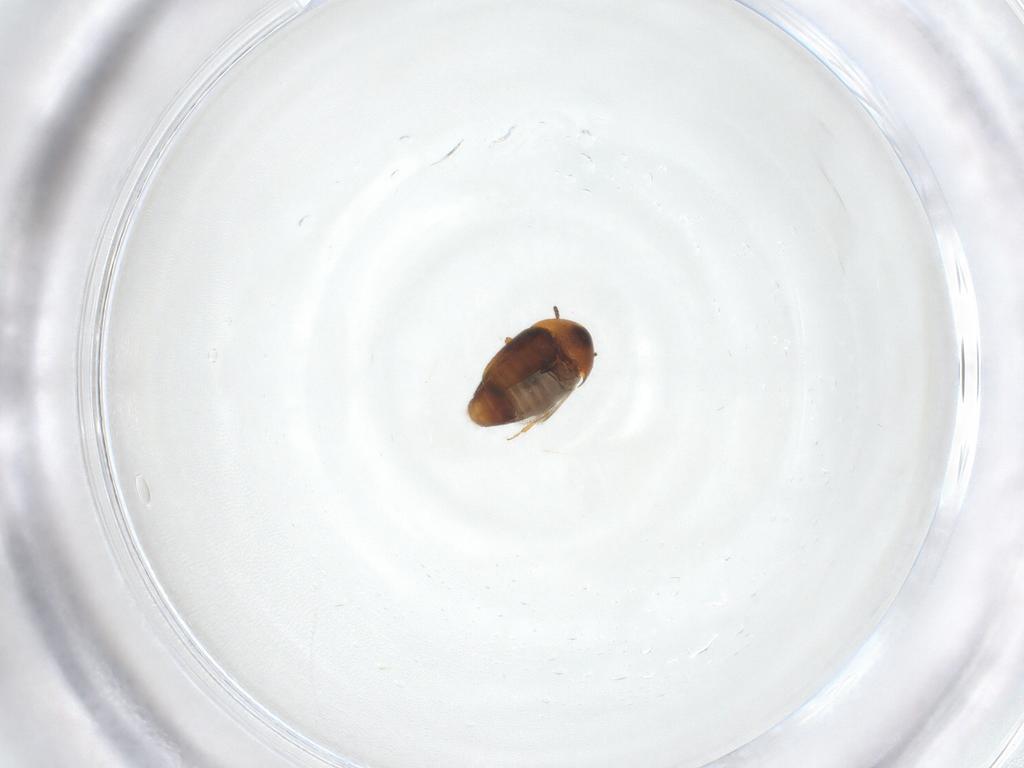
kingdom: Animalia
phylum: Arthropoda
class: Insecta
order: Coleoptera
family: Corylophidae
